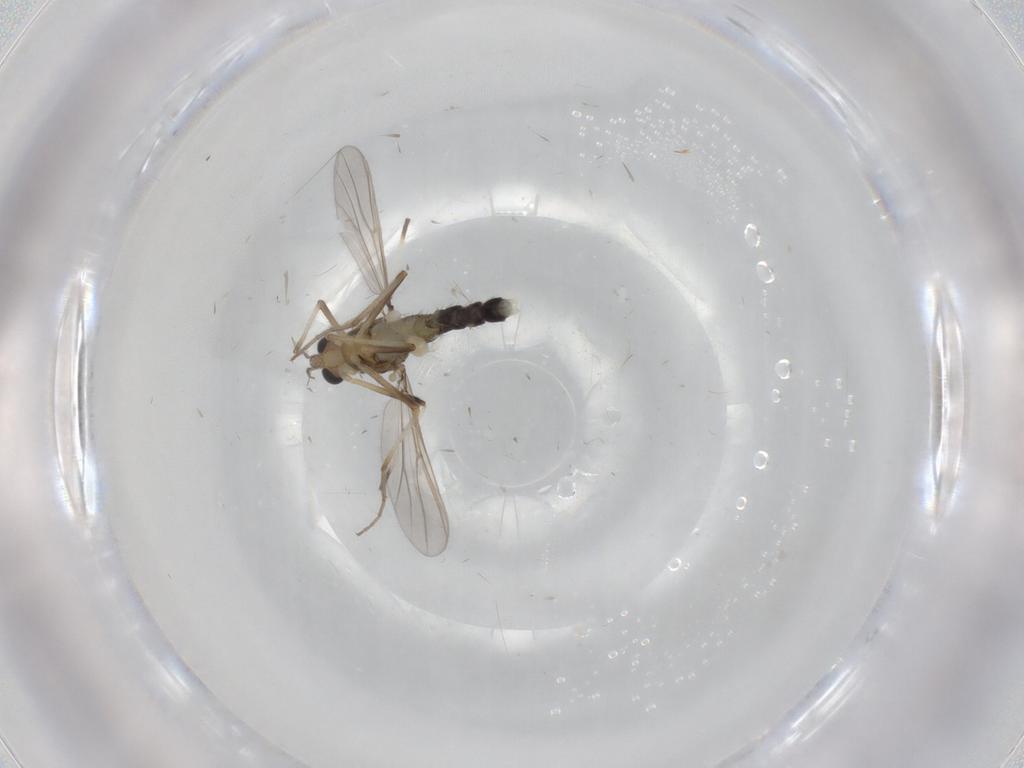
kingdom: Animalia
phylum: Arthropoda
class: Insecta
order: Diptera
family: Chironomidae
